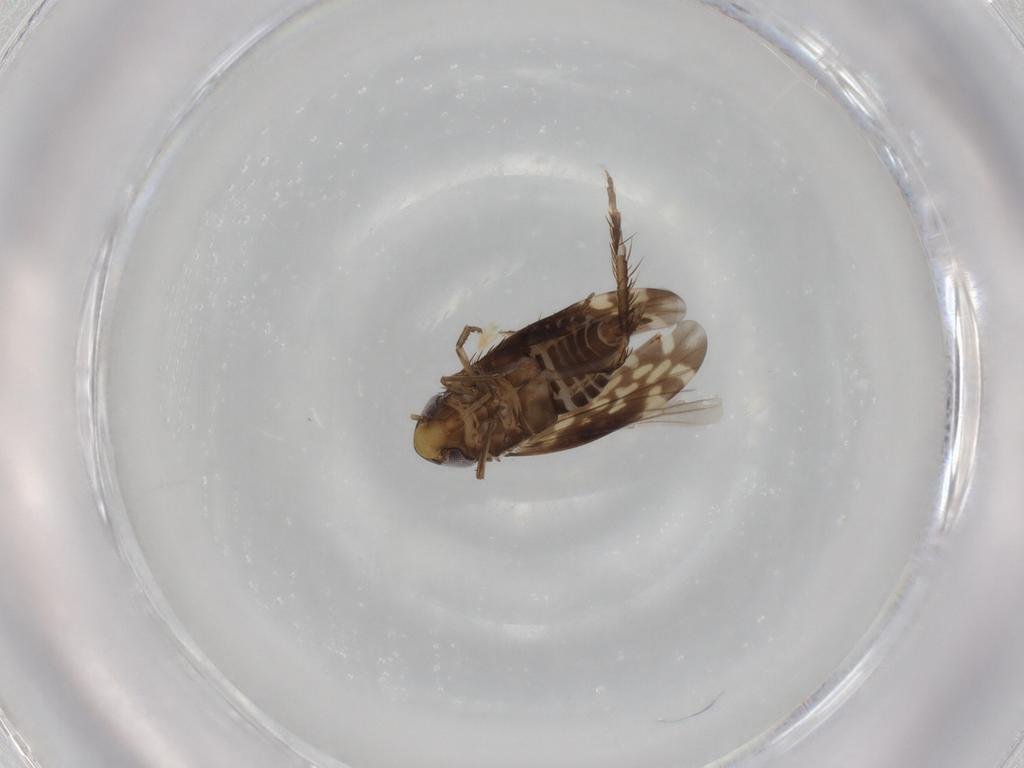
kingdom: Animalia
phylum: Arthropoda
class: Insecta
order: Hemiptera
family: Cicadellidae
